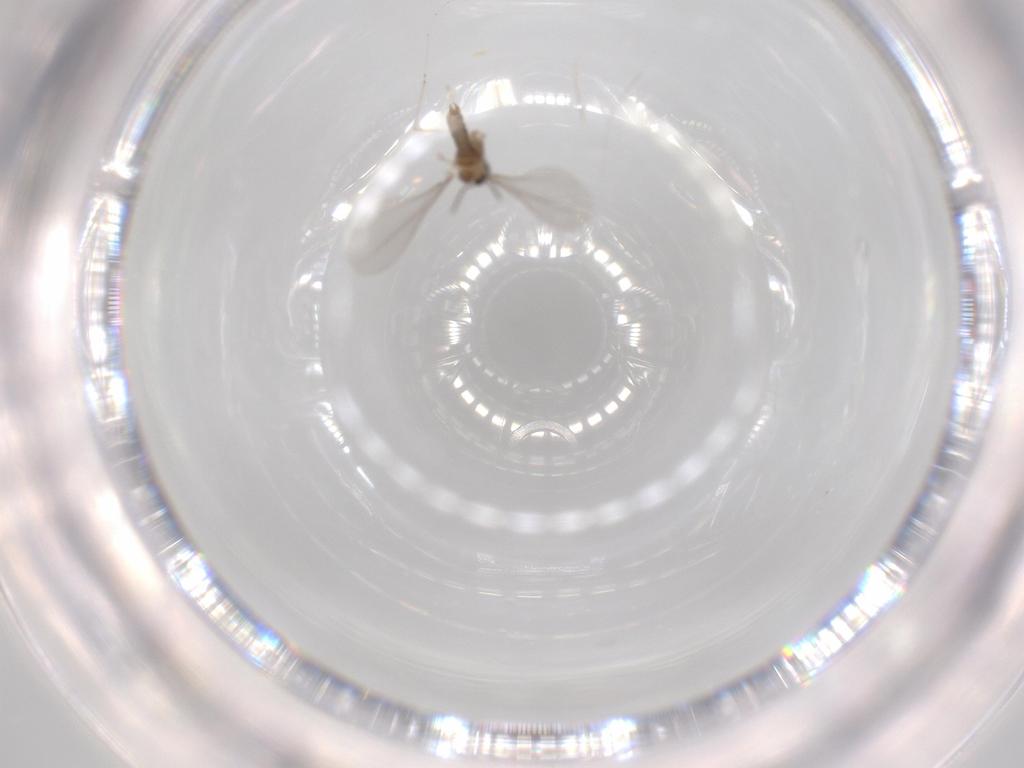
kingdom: Animalia
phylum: Arthropoda
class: Insecta
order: Diptera
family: Cecidomyiidae
